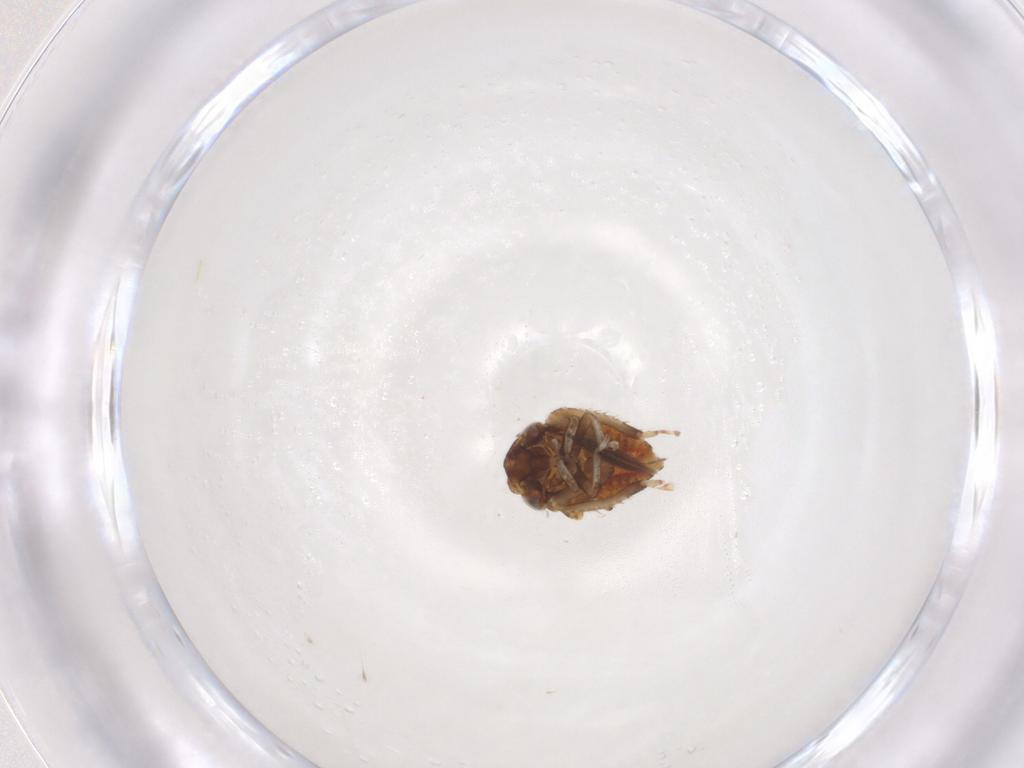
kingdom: Animalia
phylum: Arthropoda
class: Insecta
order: Hemiptera
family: Cicadellidae
